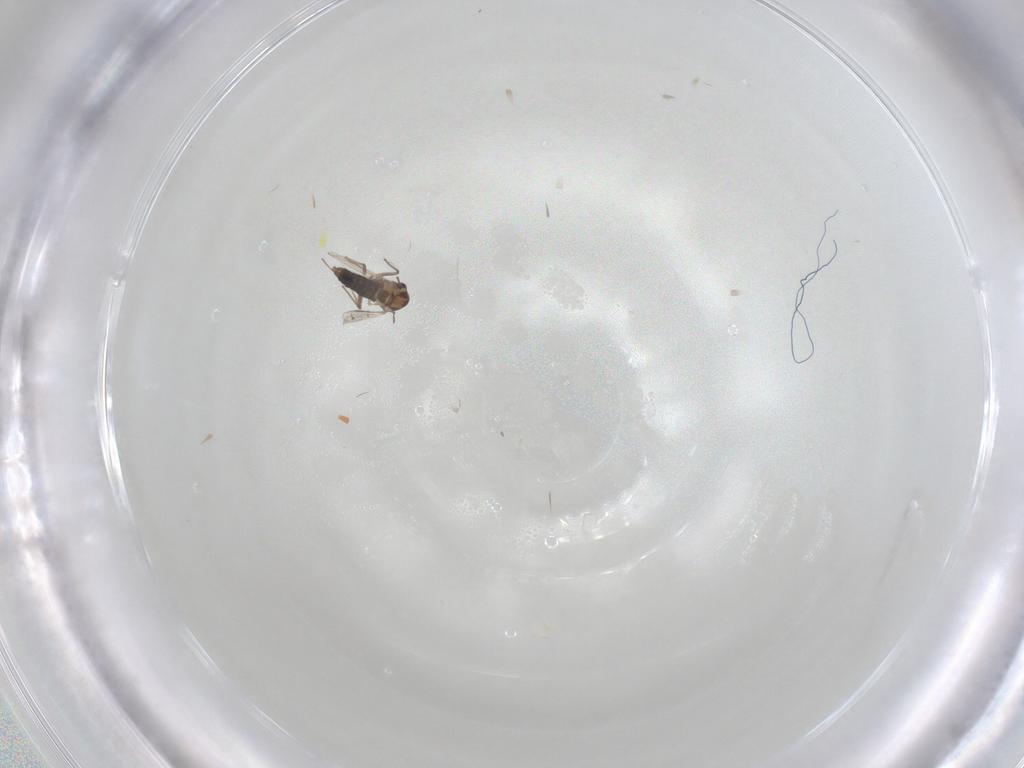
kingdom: Animalia
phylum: Arthropoda
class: Insecta
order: Diptera
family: Chironomidae
